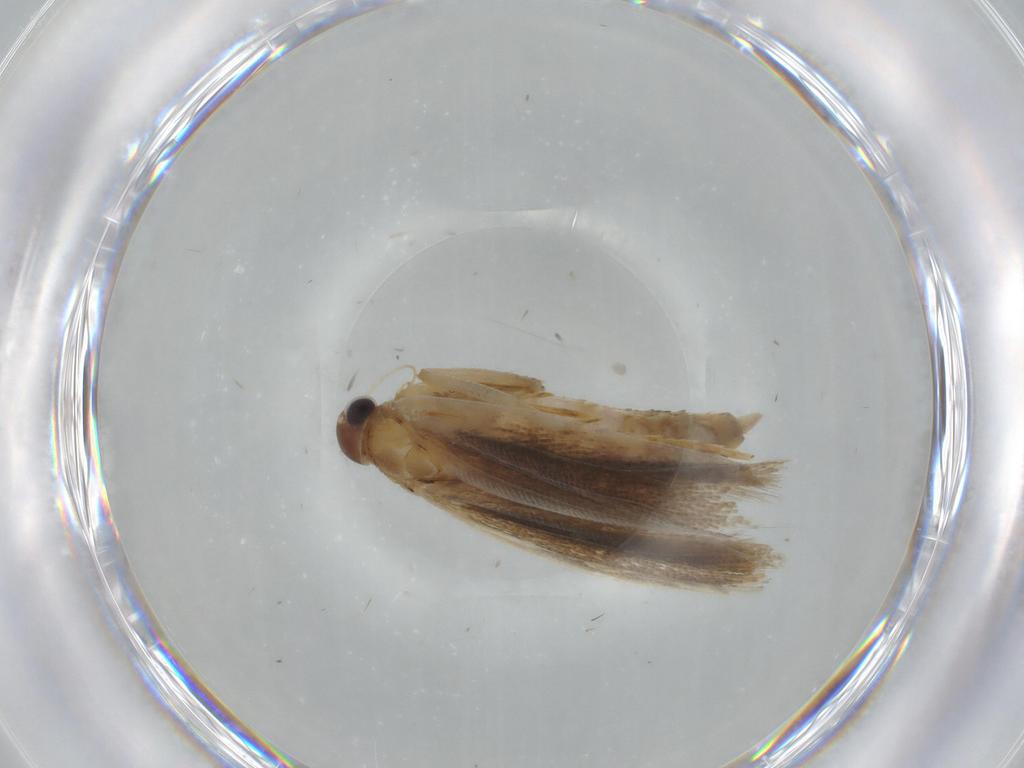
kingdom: Animalia
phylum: Arthropoda
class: Insecta
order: Lepidoptera
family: Gelechiidae
